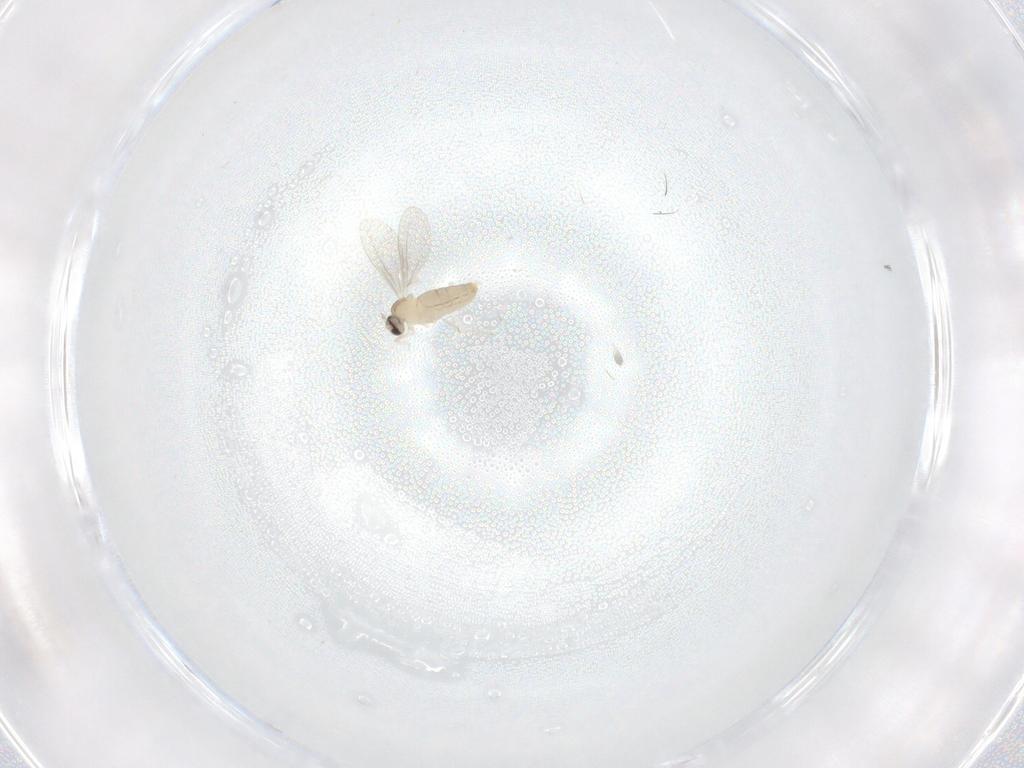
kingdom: Animalia
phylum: Arthropoda
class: Insecta
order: Diptera
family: Cecidomyiidae
